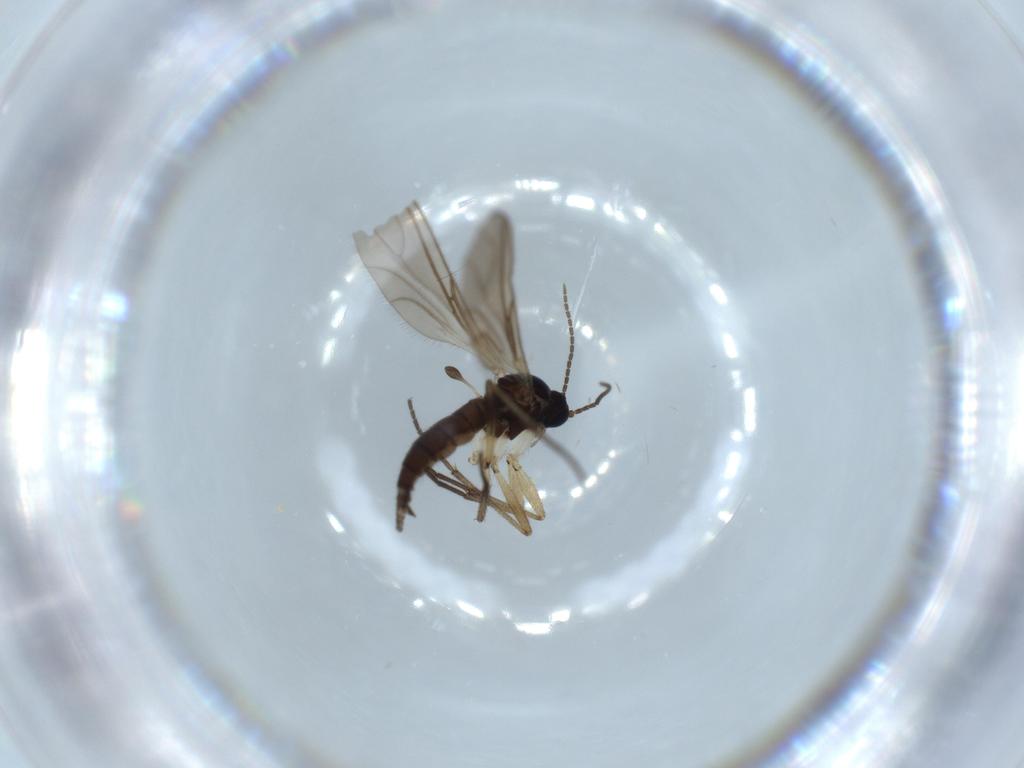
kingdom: Animalia
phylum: Arthropoda
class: Insecta
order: Diptera
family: Sciaridae
